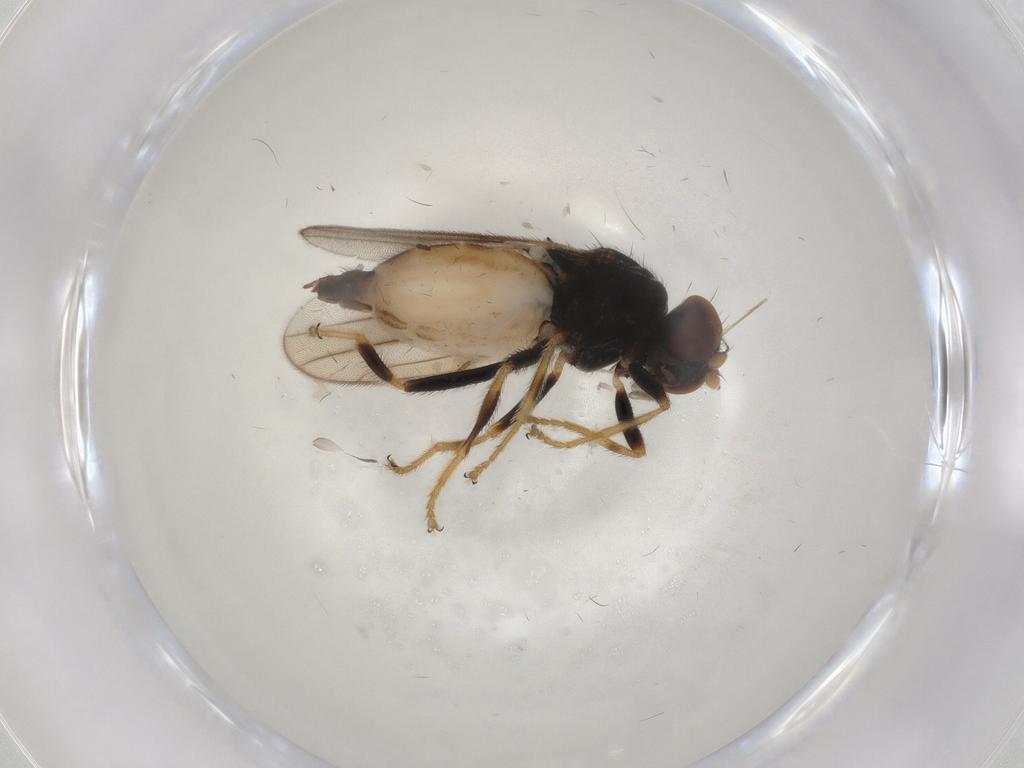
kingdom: Animalia
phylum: Arthropoda
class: Insecta
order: Diptera
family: Chloropidae
